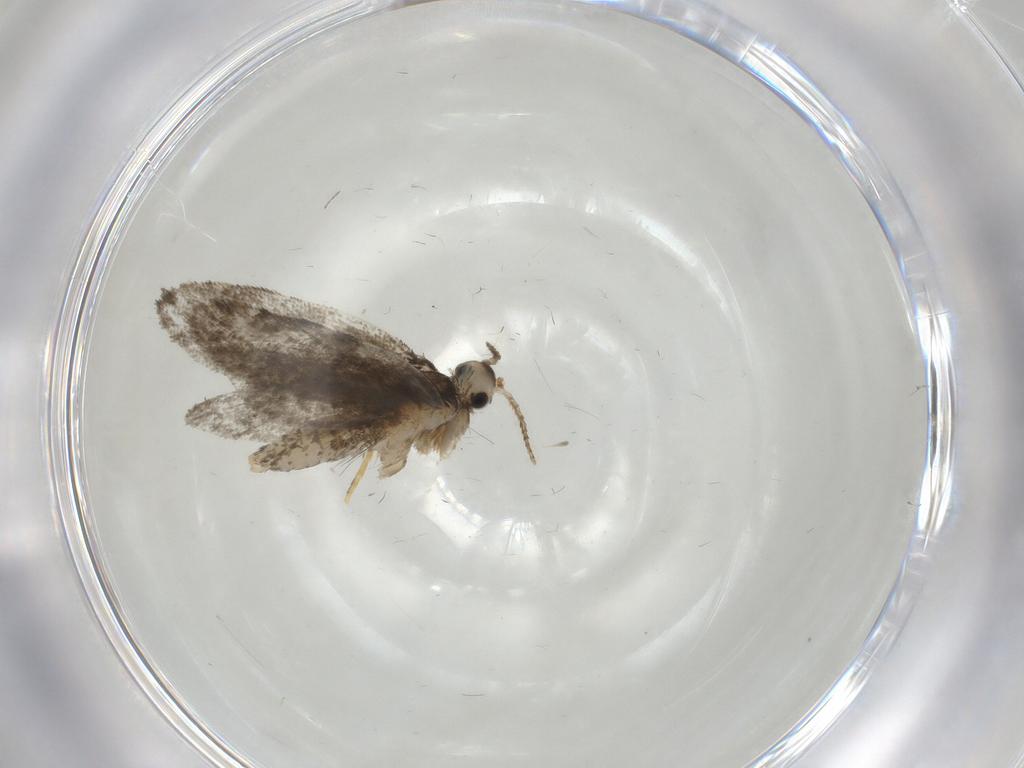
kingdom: Animalia
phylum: Arthropoda
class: Insecta
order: Lepidoptera
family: Psychidae
